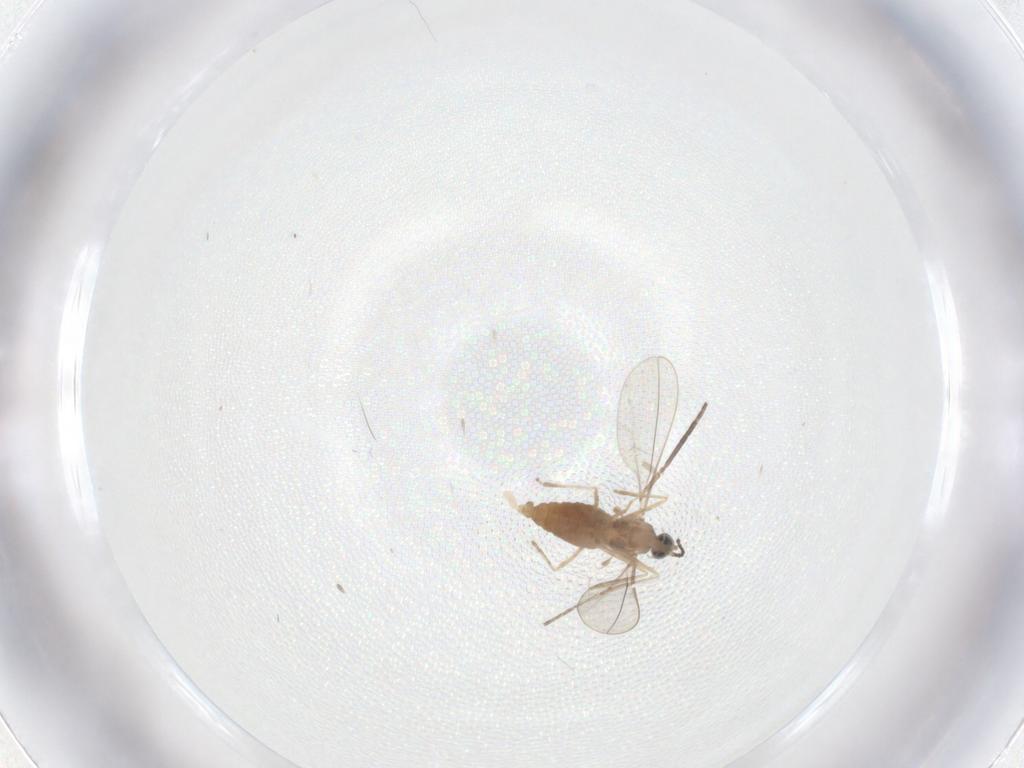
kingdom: Animalia
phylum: Arthropoda
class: Insecta
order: Diptera
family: Cecidomyiidae
